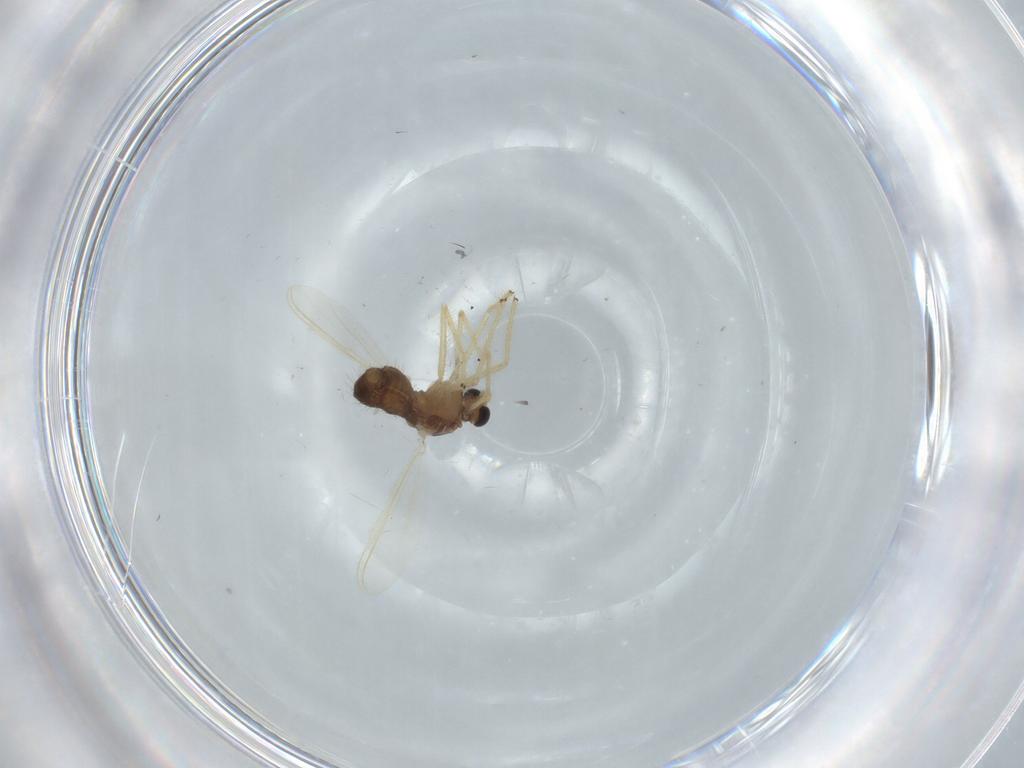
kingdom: Animalia
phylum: Arthropoda
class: Insecta
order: Diptera
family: Chironomidae
